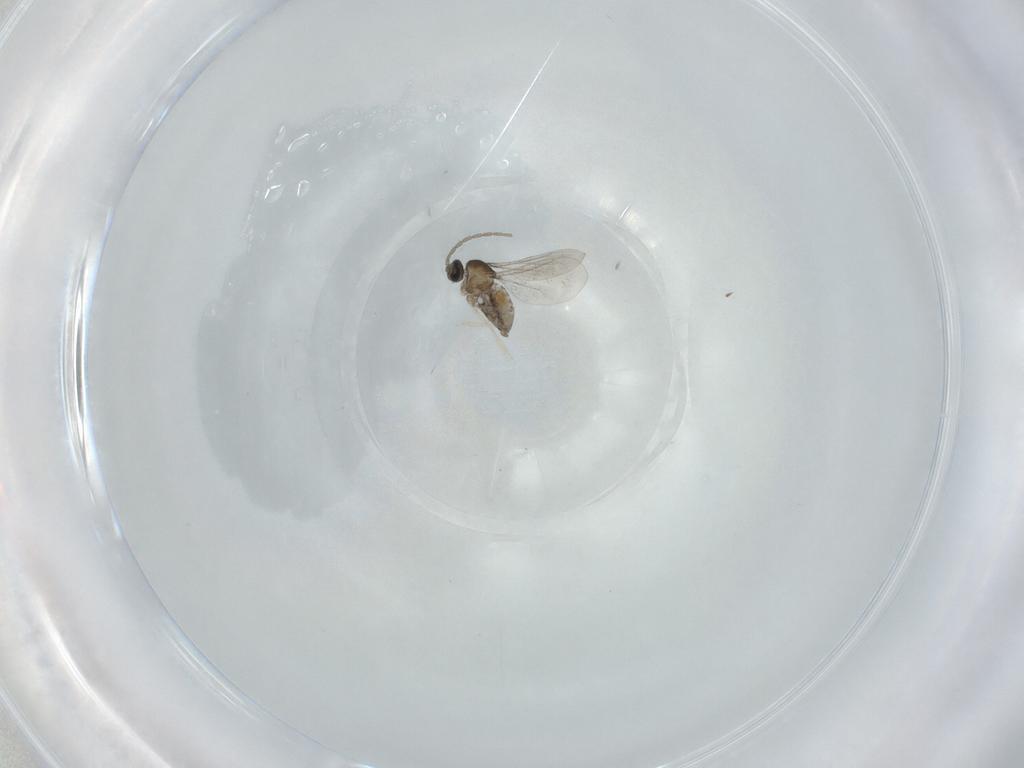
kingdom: Animalia
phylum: Arthropoda
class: Insecta
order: Diptera
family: Cecidomyiidae
